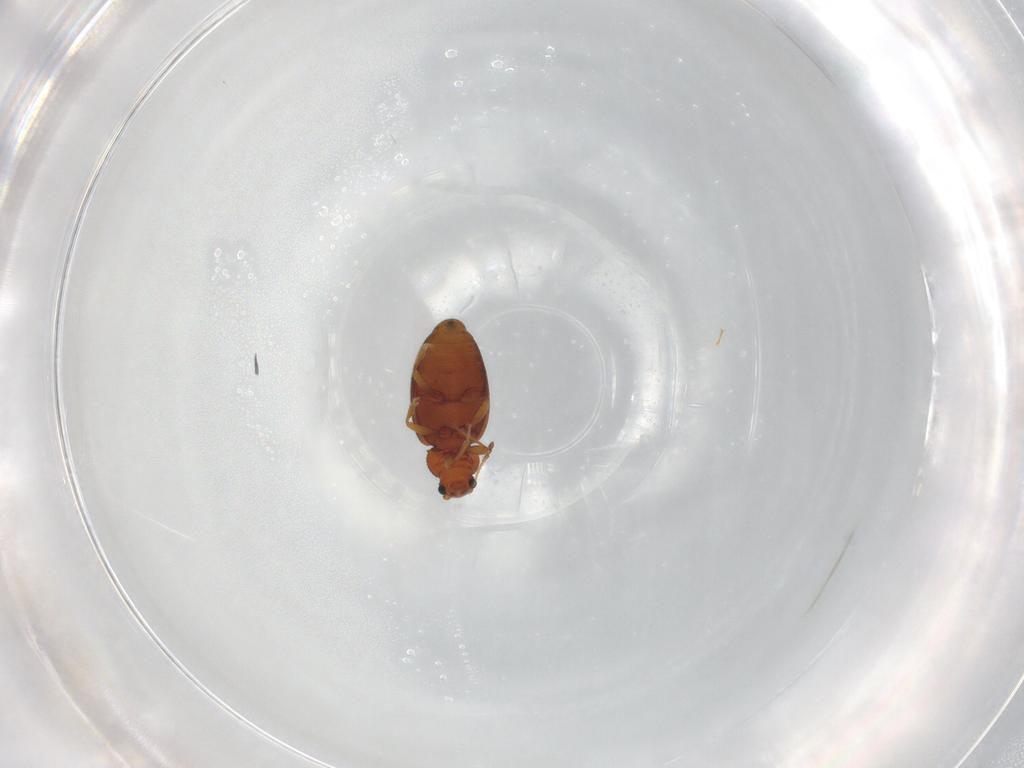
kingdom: Animalia
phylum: Arthropoda
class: Insecta
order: Coleoptera
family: Latridiidae
